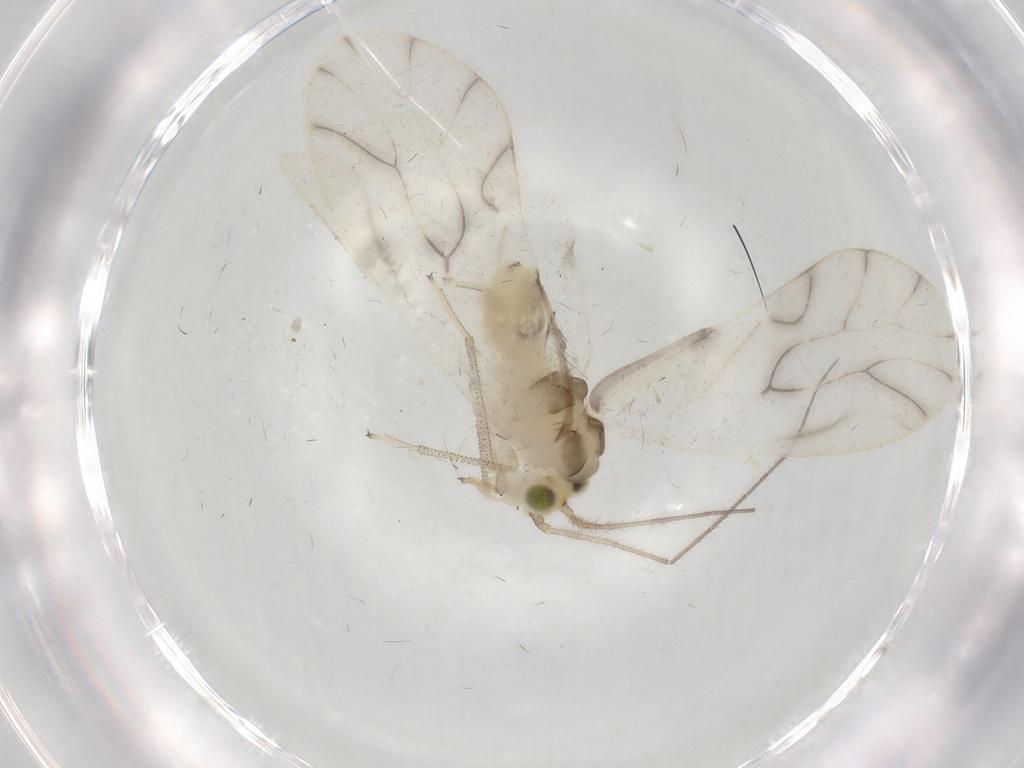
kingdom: Animalia
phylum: Arthropoda
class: Insecta
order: Psocodea
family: Caeciliusidae
